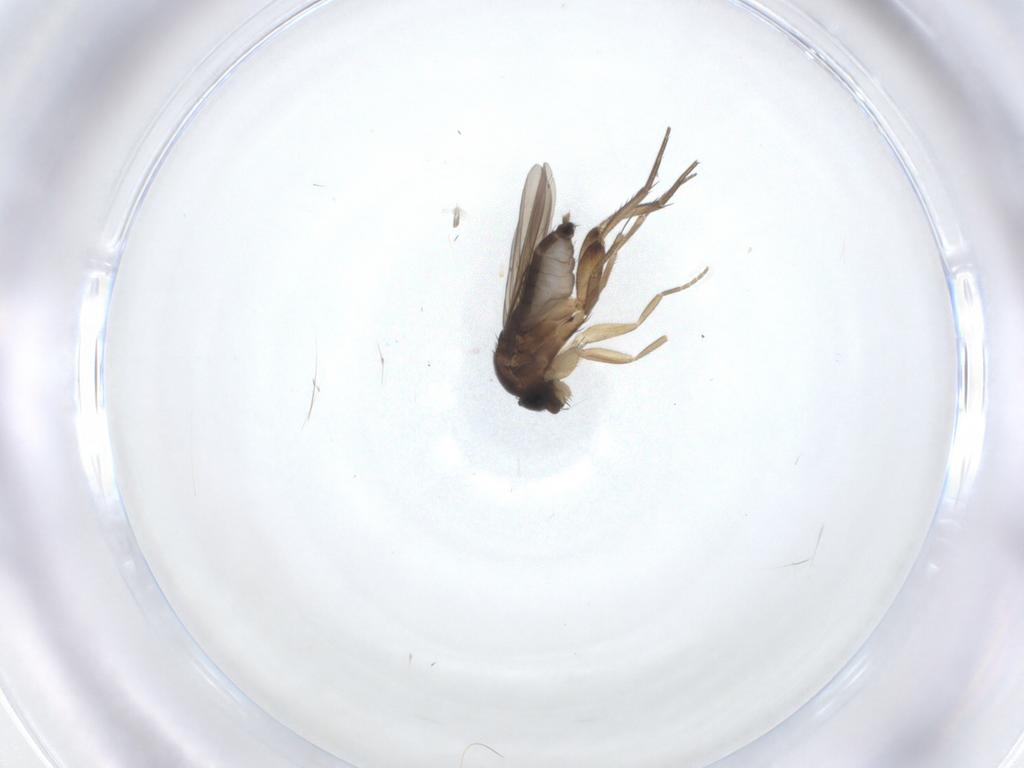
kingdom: Animalia
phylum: Arthropoda
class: Insecta
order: Diptera
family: Phoridae
